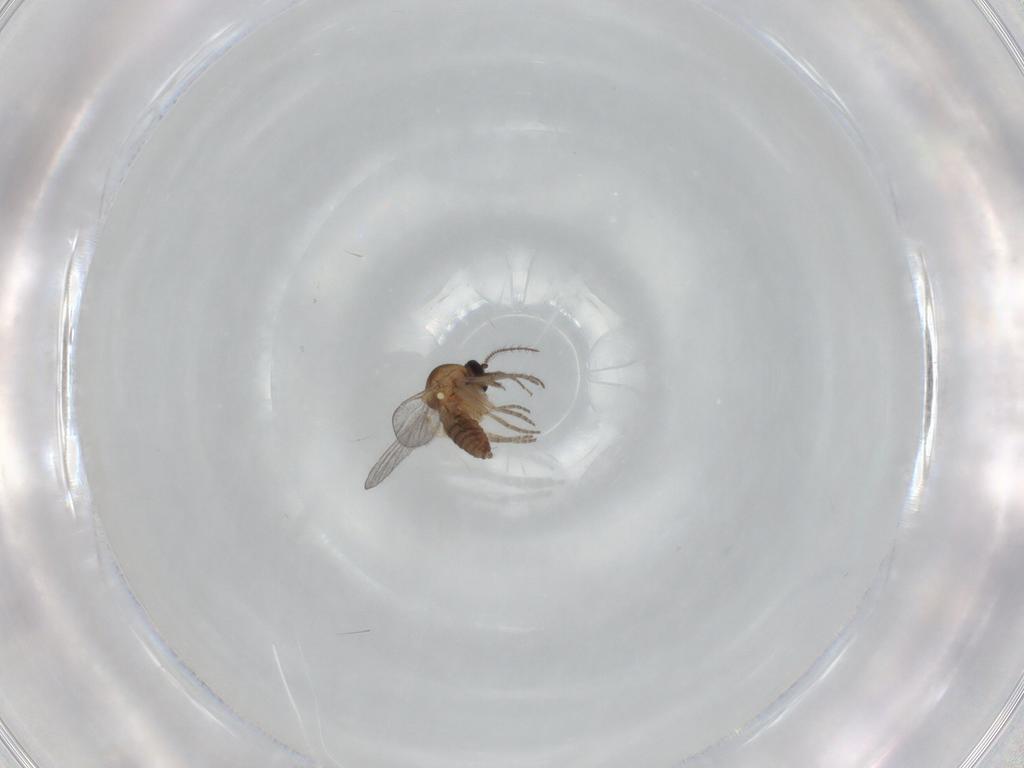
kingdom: Animalia
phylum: Arthropoda
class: Insecta
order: Diptera
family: Ceratopogonidae
